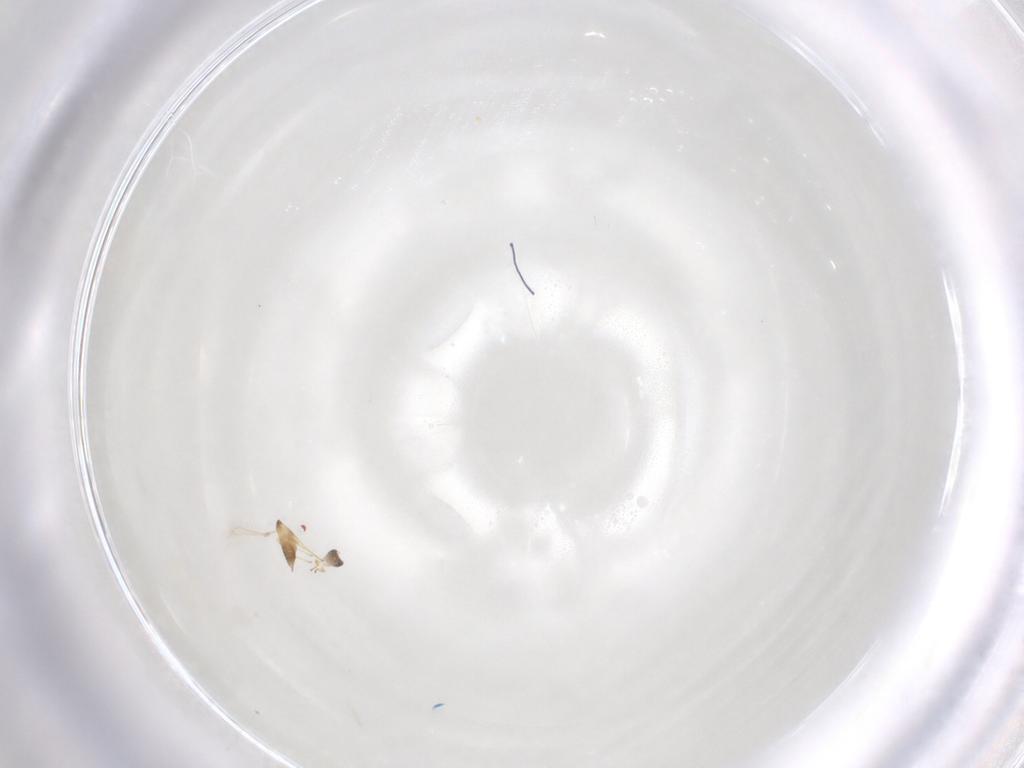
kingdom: Animalia
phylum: Arthropoda
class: Insecta
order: Hymenoptera
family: Mymaridae
